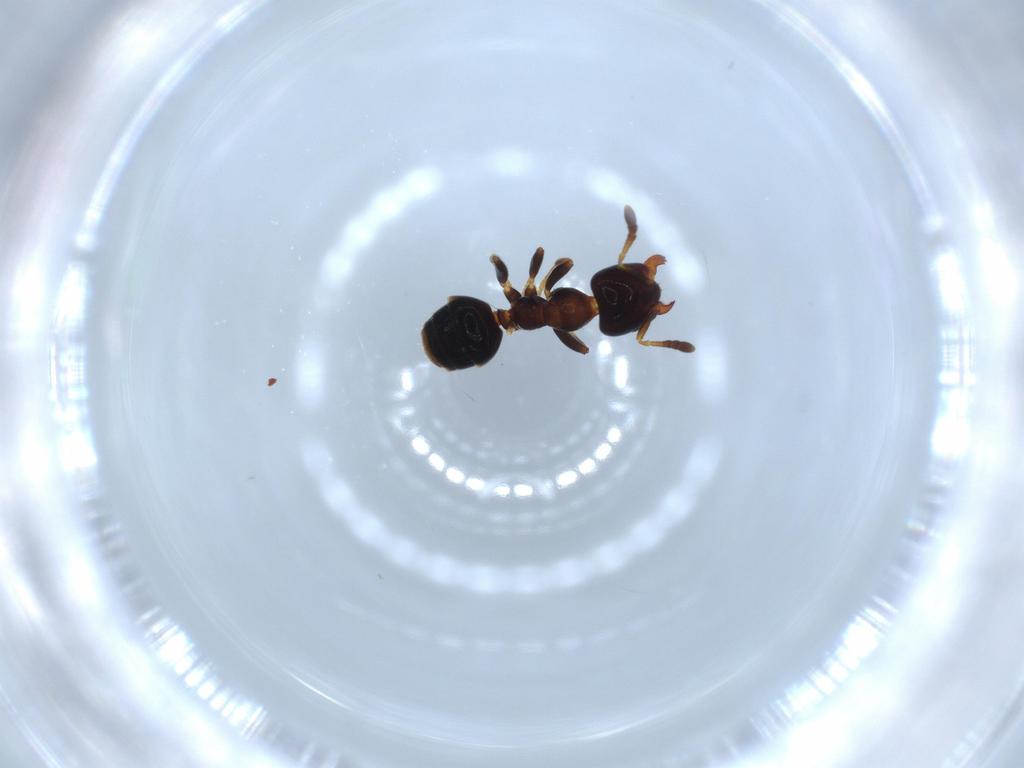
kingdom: Animalia
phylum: Arthropoda
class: Insecta
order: Hymenoptera
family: Formicidae
